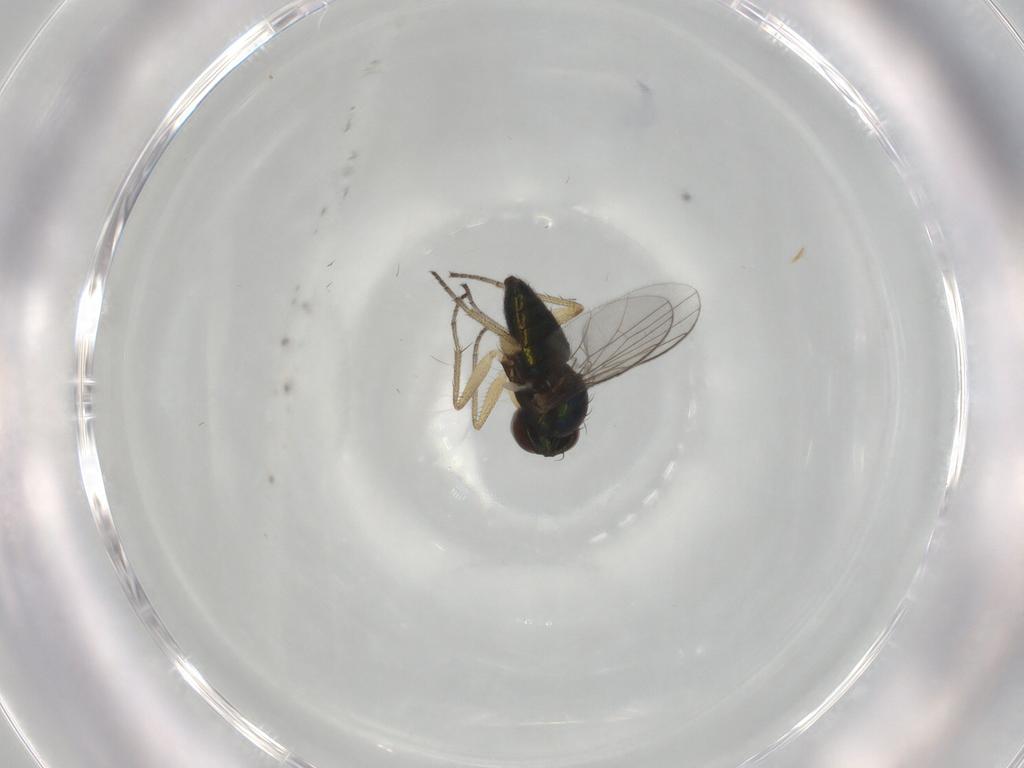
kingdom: Animalia
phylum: Arthropoda
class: Insecta
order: Diptera
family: Dolichopodidae
